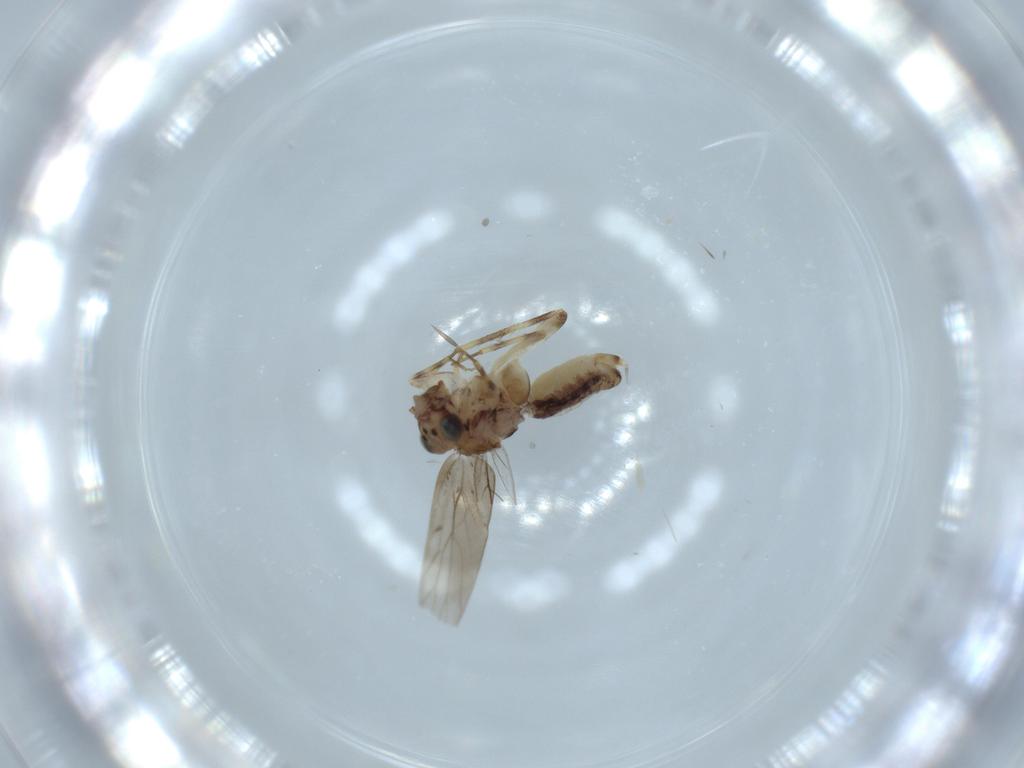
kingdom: Animalia
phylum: Arthropoda
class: Insecta
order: Psocodea
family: Lepidopsocidae
